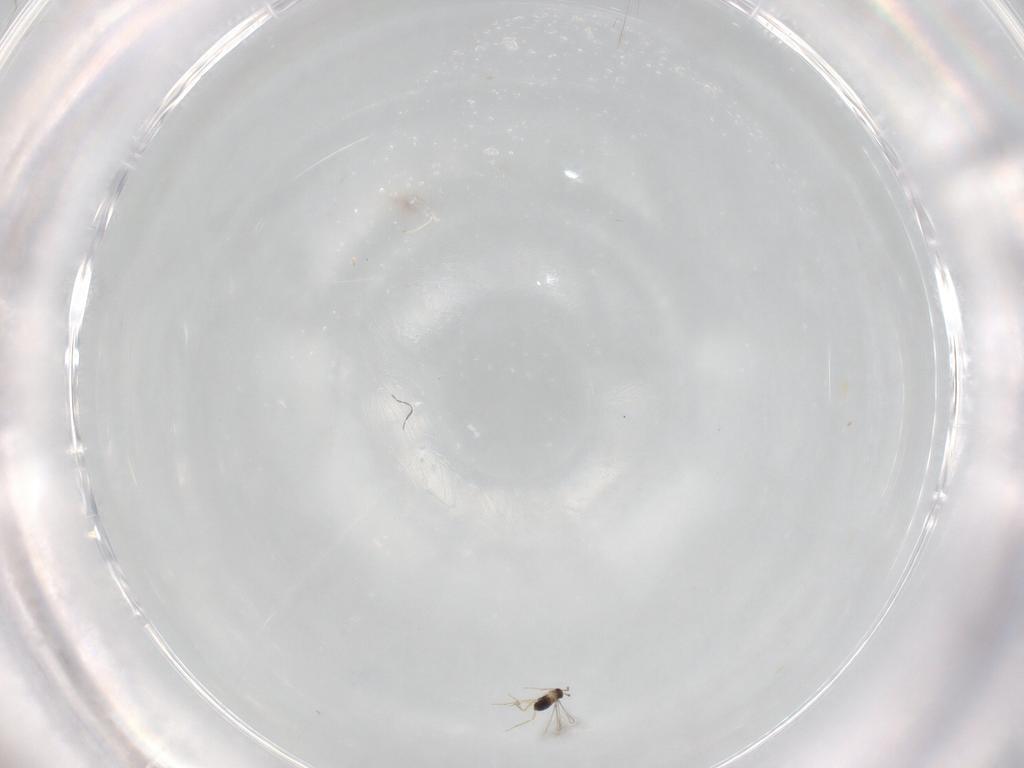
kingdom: Animalia
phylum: Arthropoda
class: Insecta
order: Hymenoptera
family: Mymaridae
